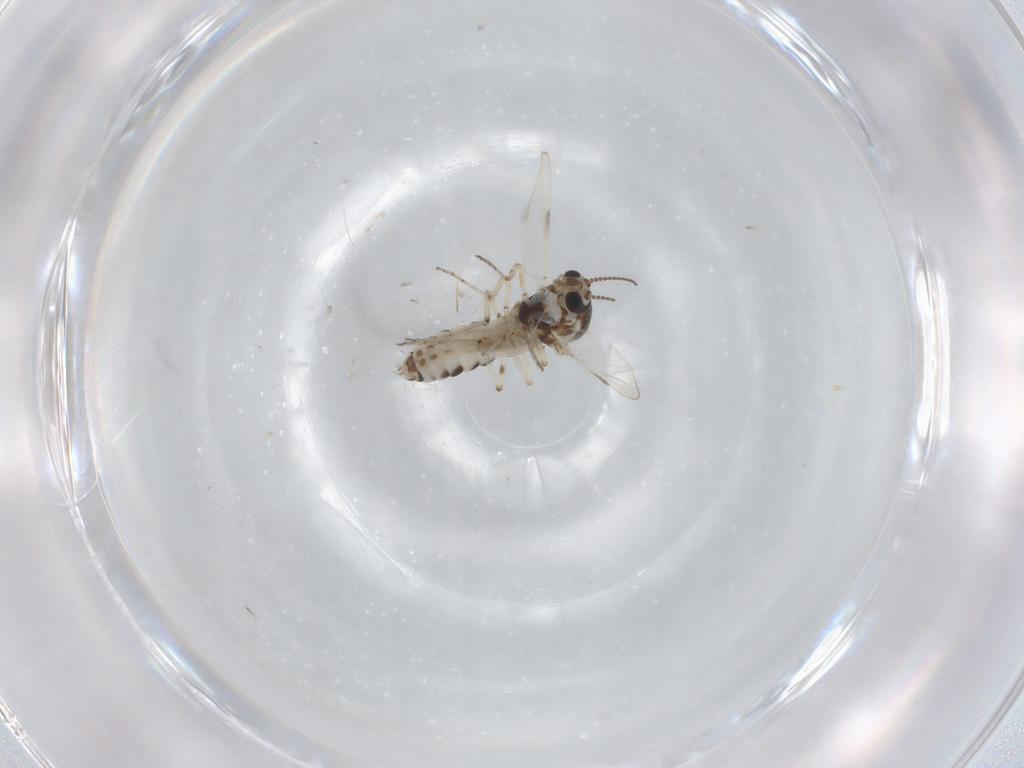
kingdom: Animalia
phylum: Arthropoda
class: Insecta
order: Diptera
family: Ceratopogonidae
